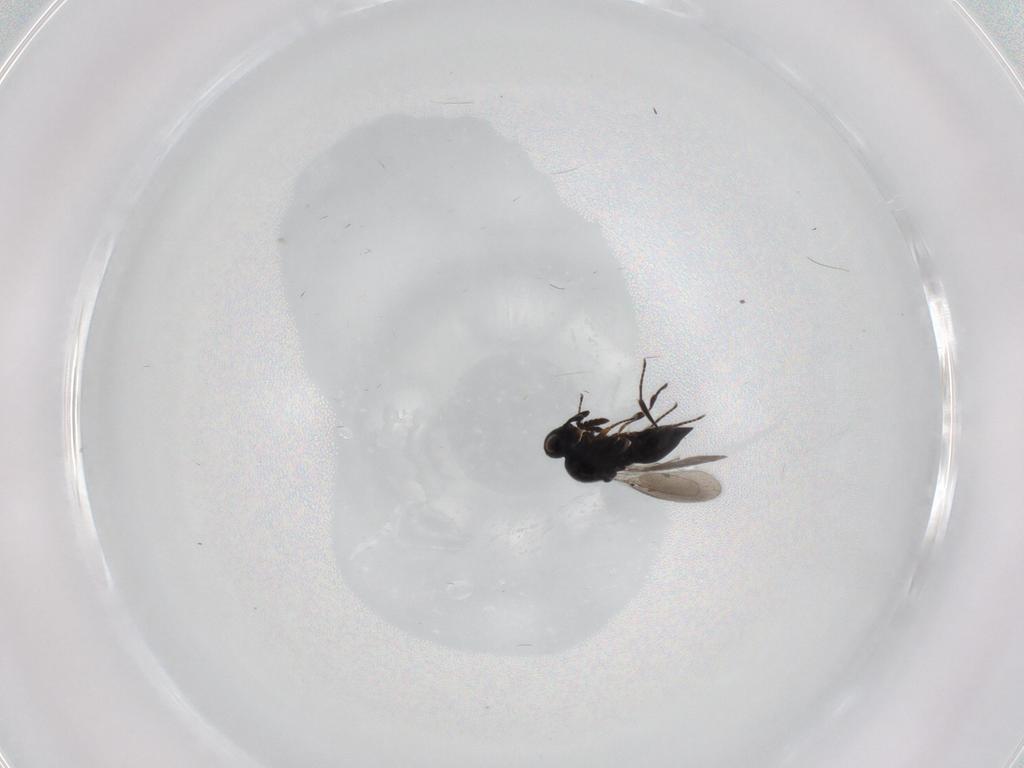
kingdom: Animalia
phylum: Arthropoda
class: Insecta
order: Hymenoptera
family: Platygastridae
